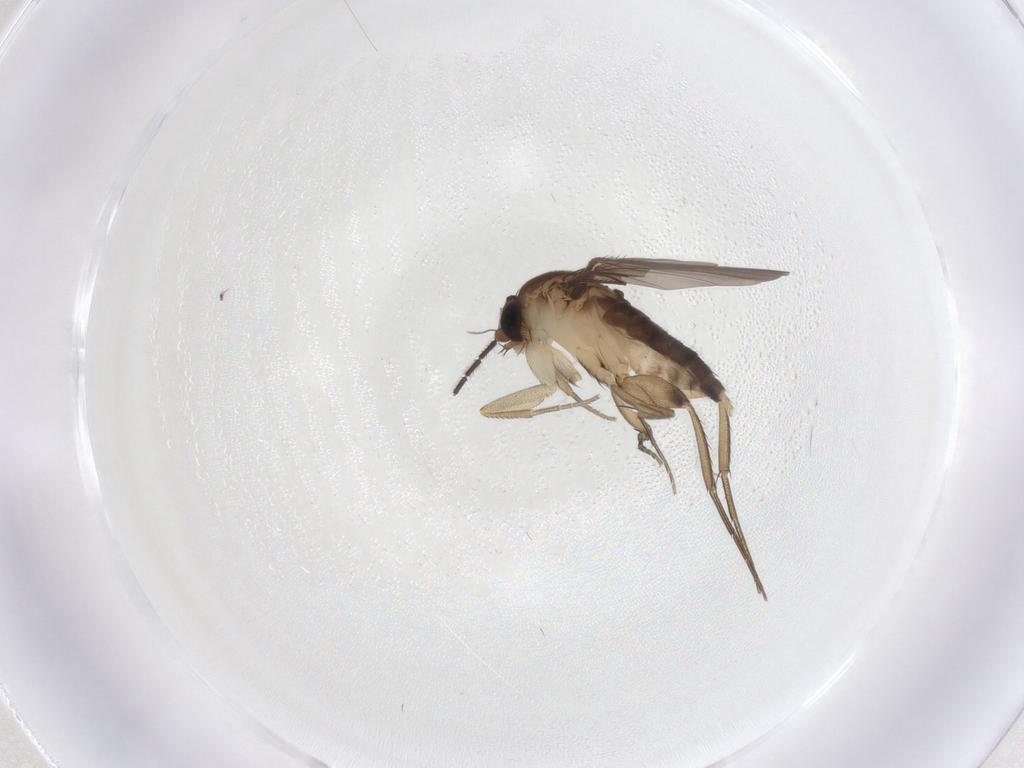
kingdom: Animalia
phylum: Arthropoda
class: Insecta
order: Diptera
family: Phoridae
